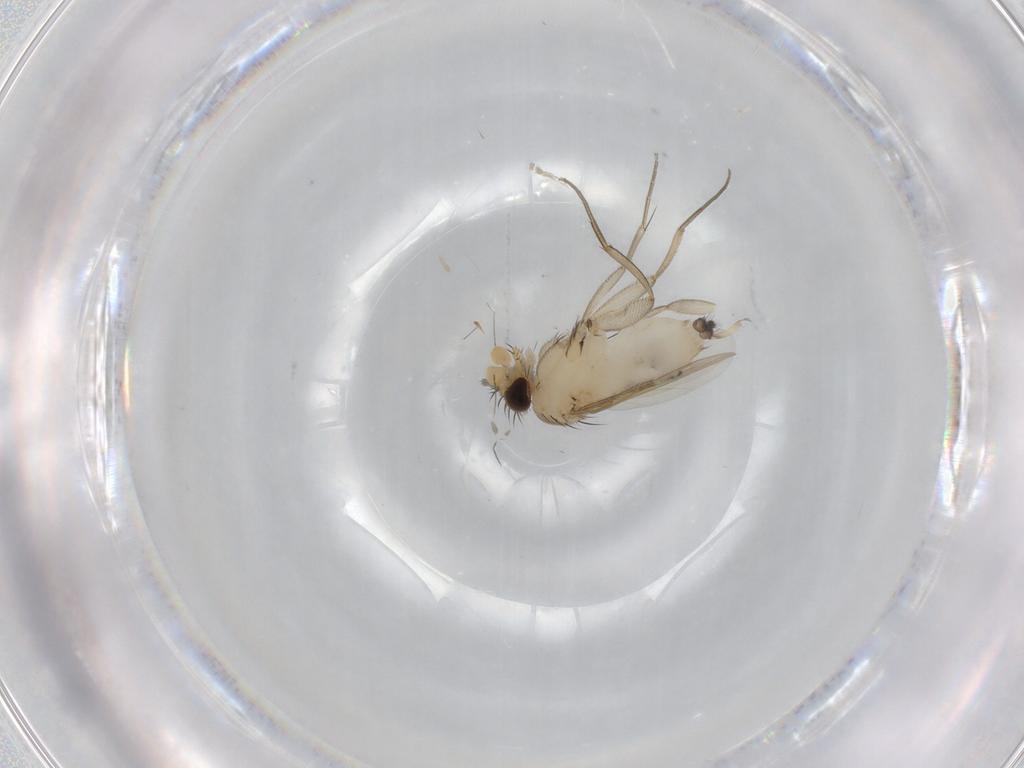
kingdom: Animalia
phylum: Arthropoda
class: Insecta
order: Diptera
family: Phoridae
